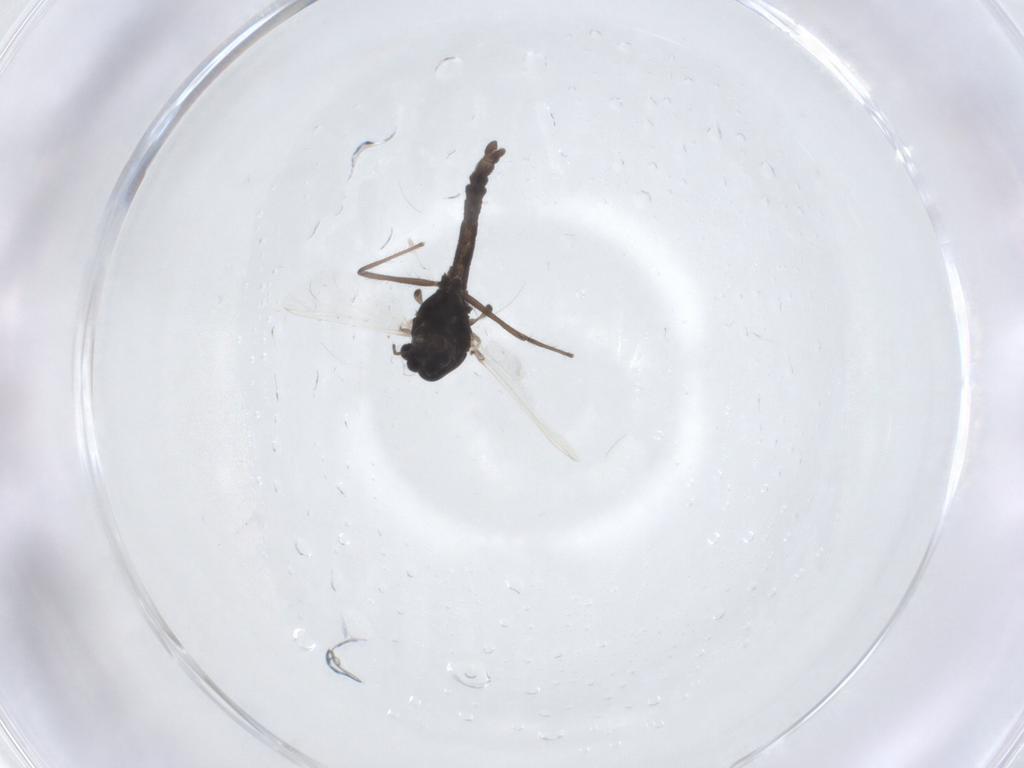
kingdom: Animalia
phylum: Arthropoda
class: Insecta
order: Diptera
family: Chironomidae
